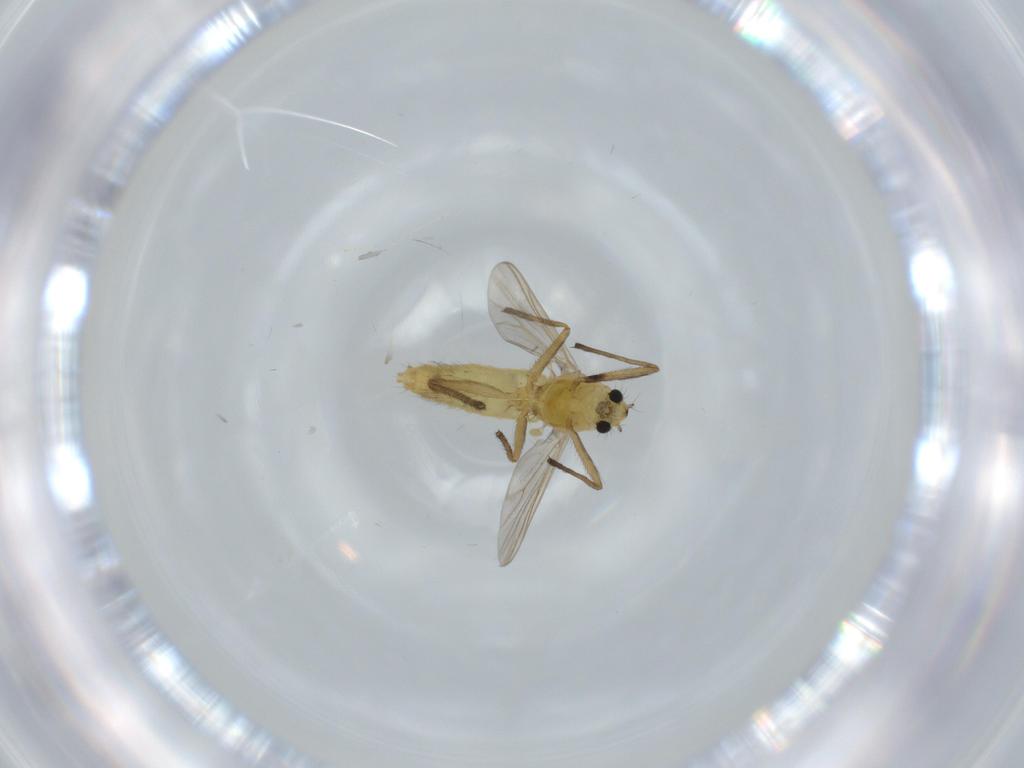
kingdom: Animalia
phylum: Arthropoda
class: Insecta
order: Diptera
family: Chironomidae
